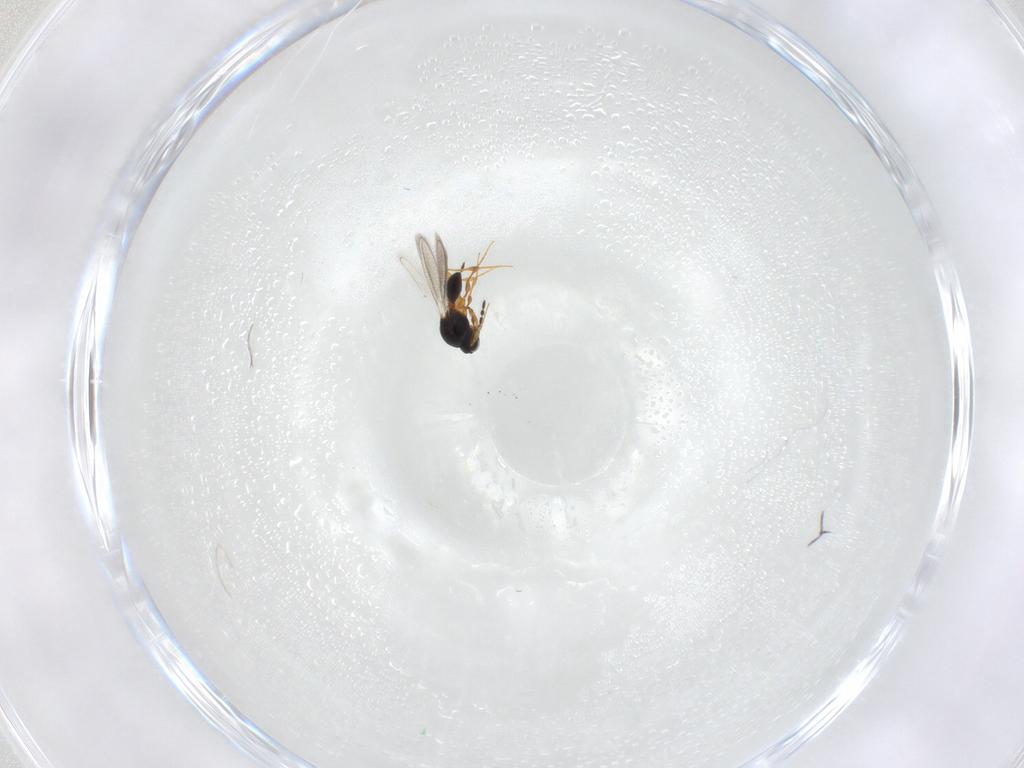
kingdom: Animalia
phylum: Arthropoda
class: Insecta
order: Hymenoptera
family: Platygastridae
